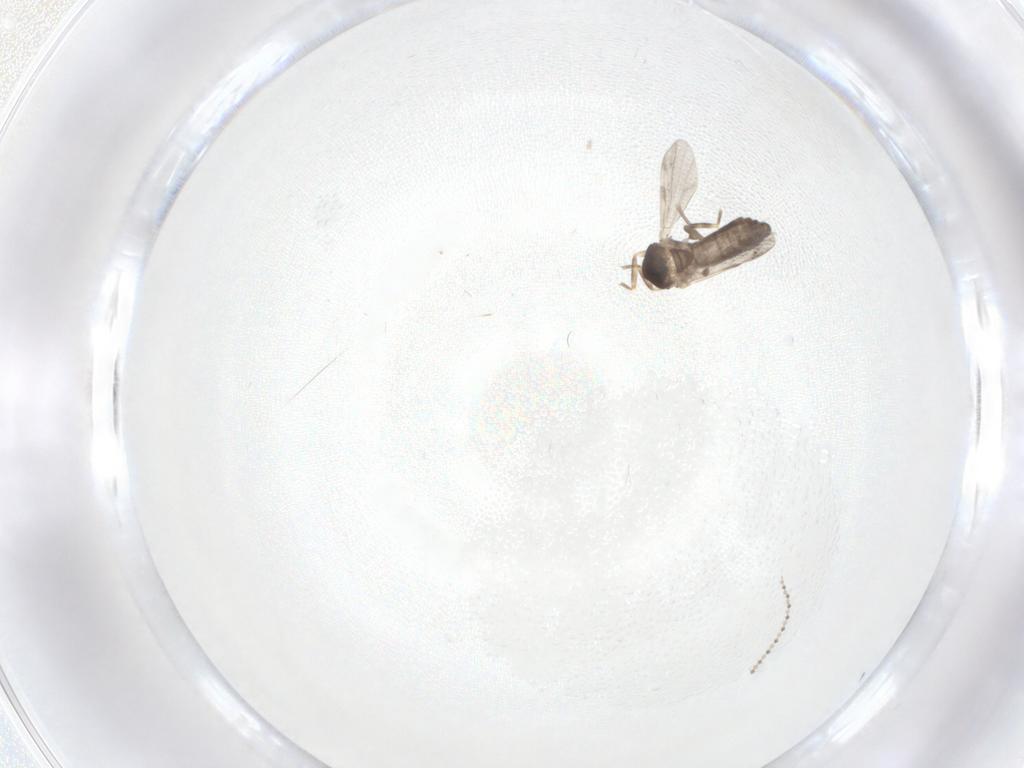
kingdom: Animalia
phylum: Arthropoda
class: Insecta
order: Diptera
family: Cecidomyiidae
